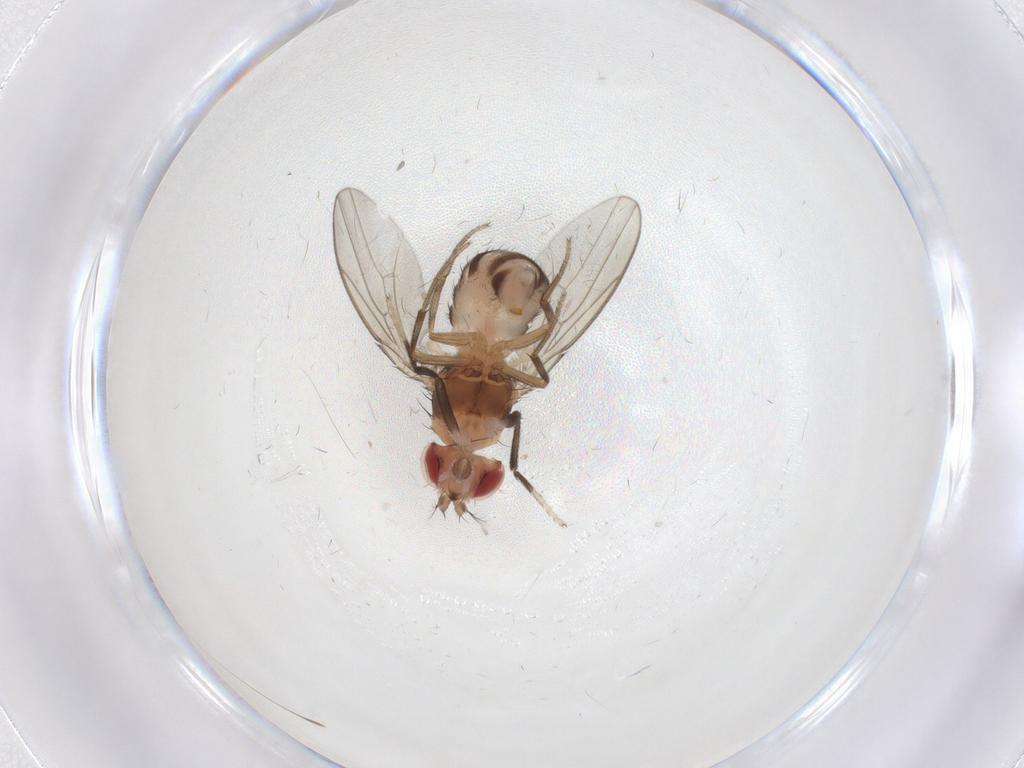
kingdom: Animalia
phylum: Arthropoda
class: Insecta
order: Diptera
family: Drosophilidae
